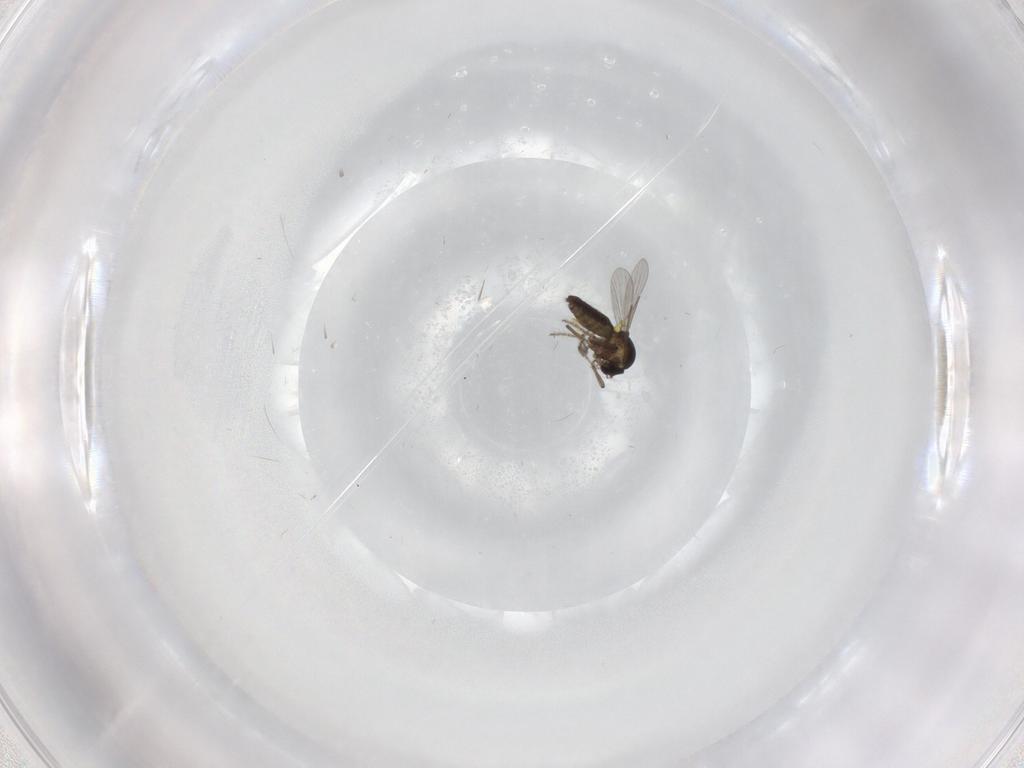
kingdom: Animalia
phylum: Arthropoda
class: Insecta
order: Diptera
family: Ceratopogonidae
